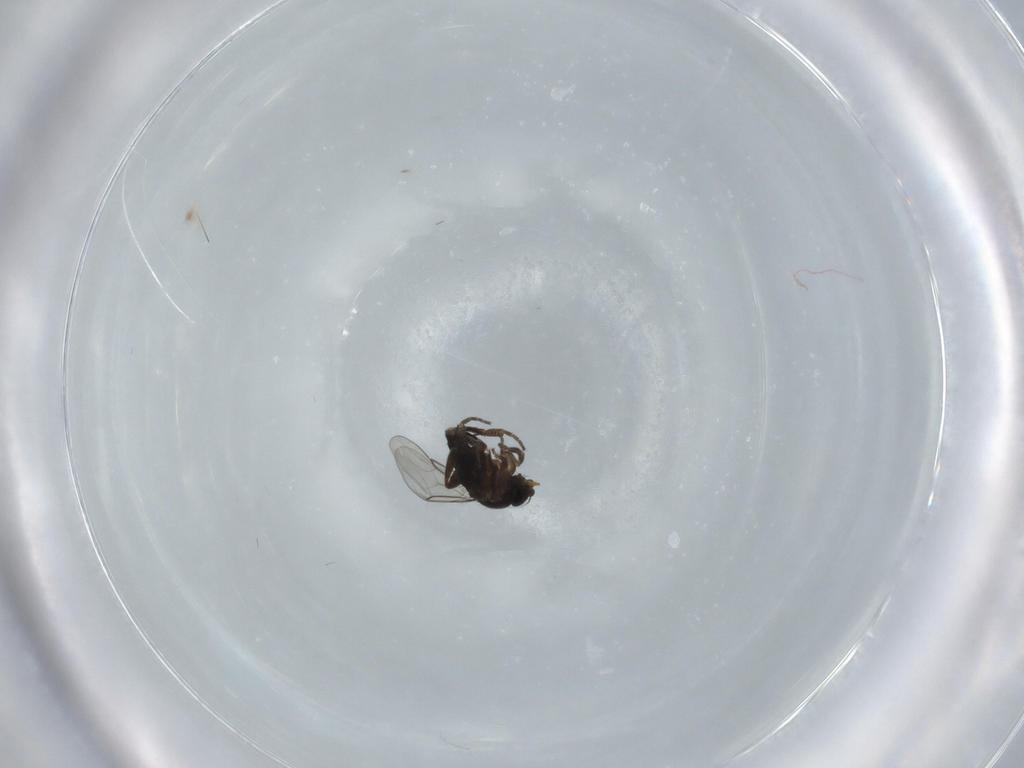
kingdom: Animalia
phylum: Arthropoda
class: Insecta
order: Diptera
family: Phoridae
